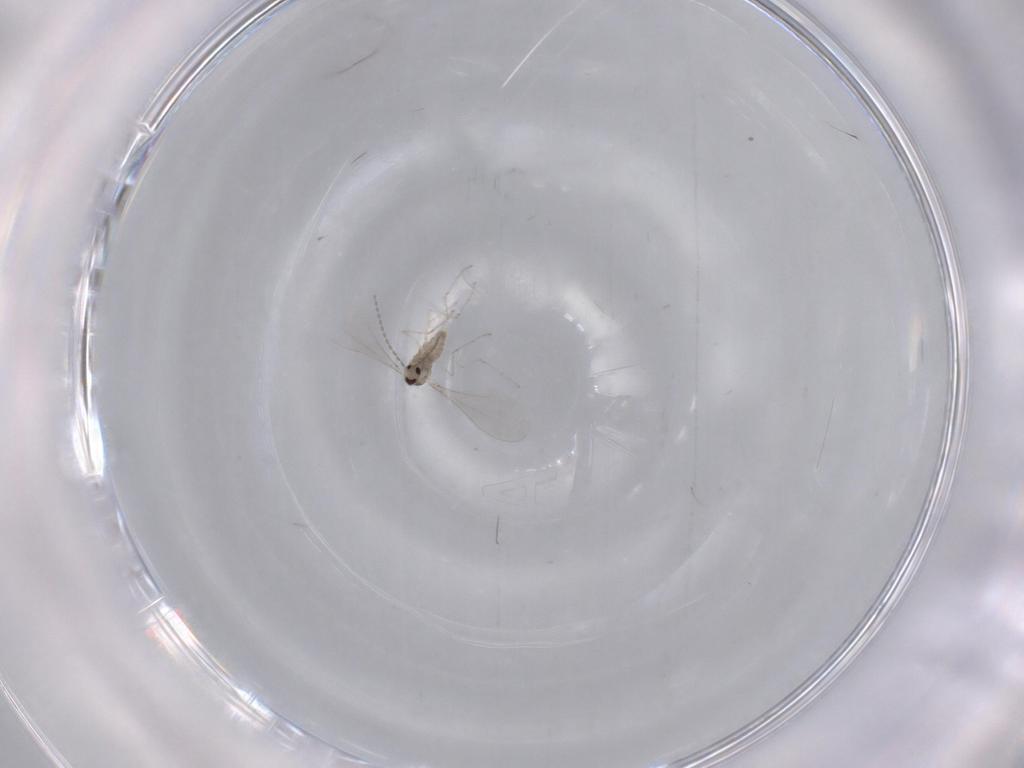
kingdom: Animalia
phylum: Arthropoda
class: Insecta
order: Diptera
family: Ceratopogonidae
